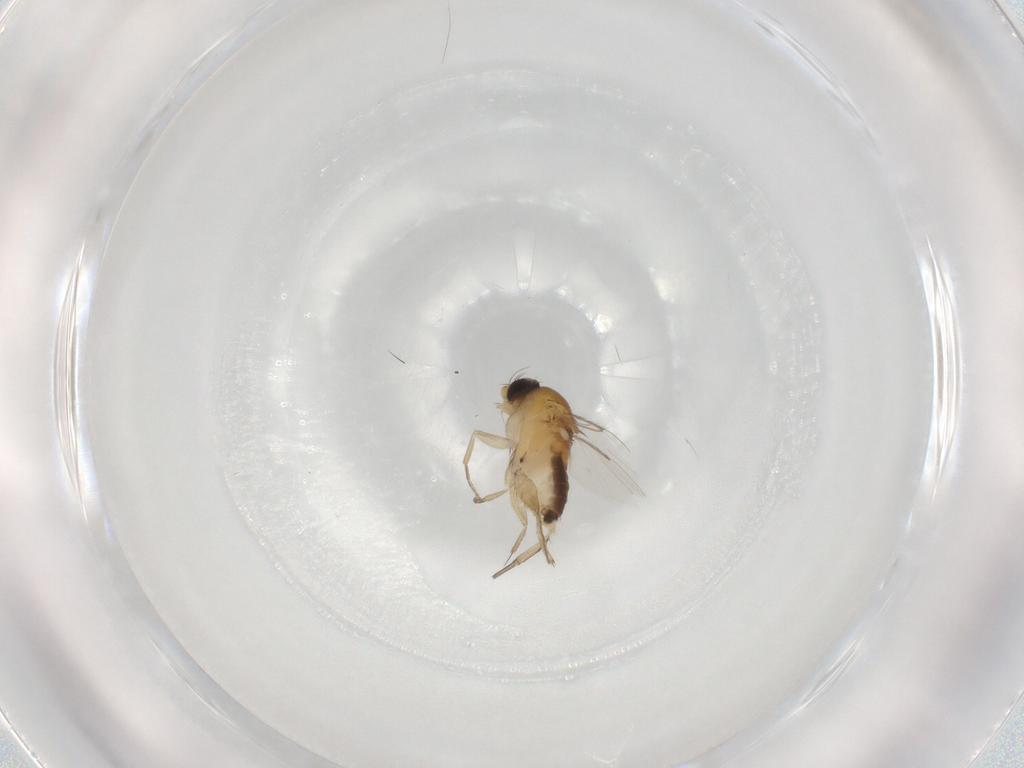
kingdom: Animalia
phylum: Arthropoda
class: Insecta
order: Diptera
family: Phoridae
